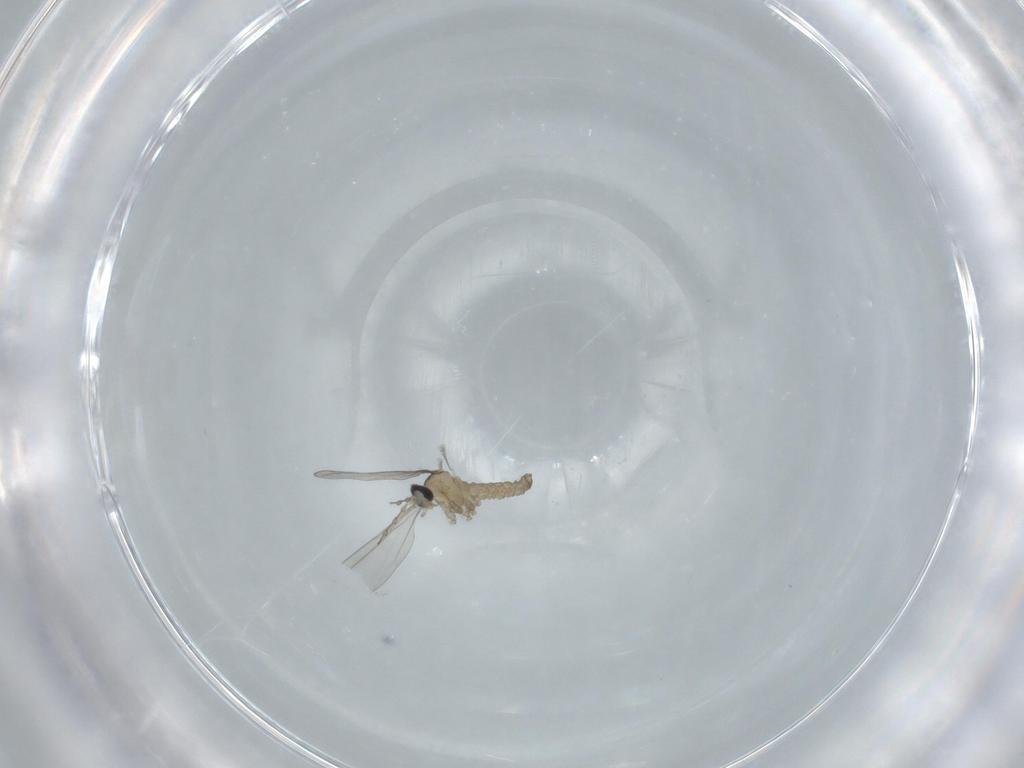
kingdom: Animalia
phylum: Arthropoda
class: Insecta
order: Diptera
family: Cecidomyiidae
